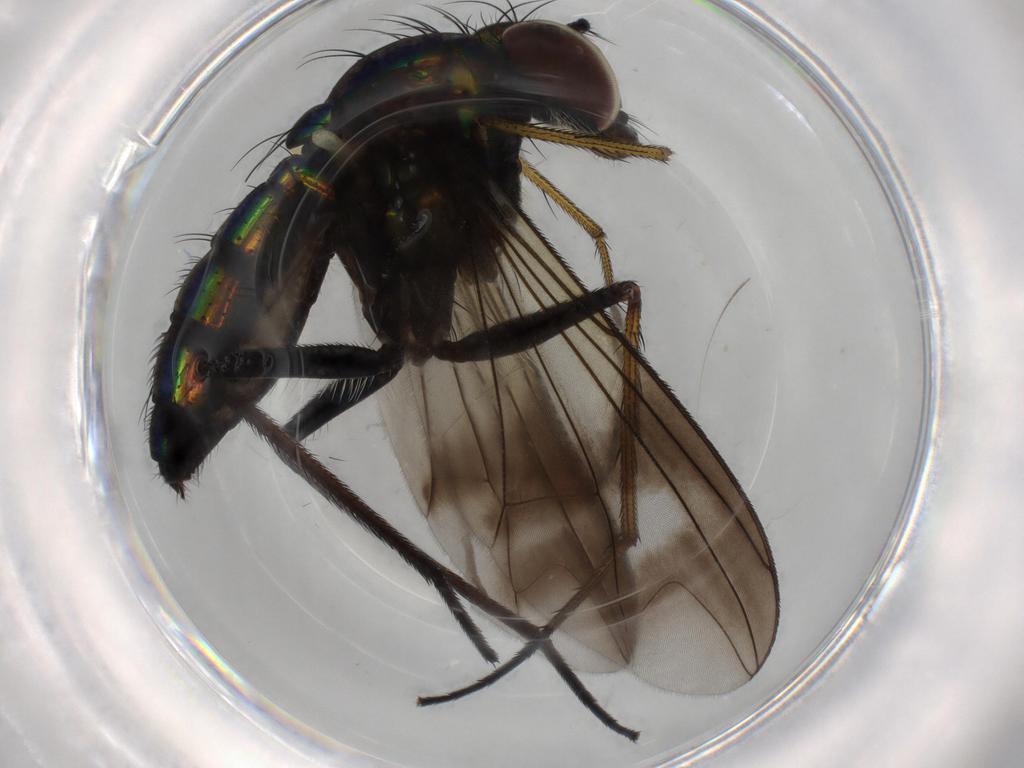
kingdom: Animalia
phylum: Arthropoda
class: Insecta
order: Diptera
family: Dolichopodidae
